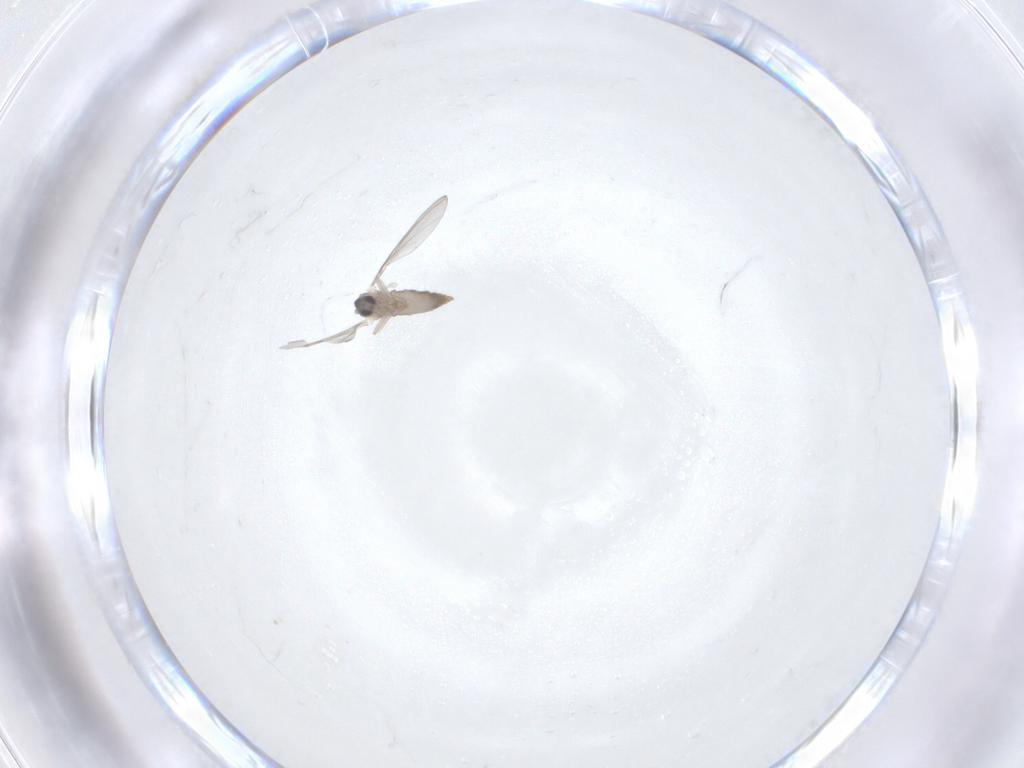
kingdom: Animalia
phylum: Arthropoda
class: Insecta
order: Diptera
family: Cecidomyiidae
